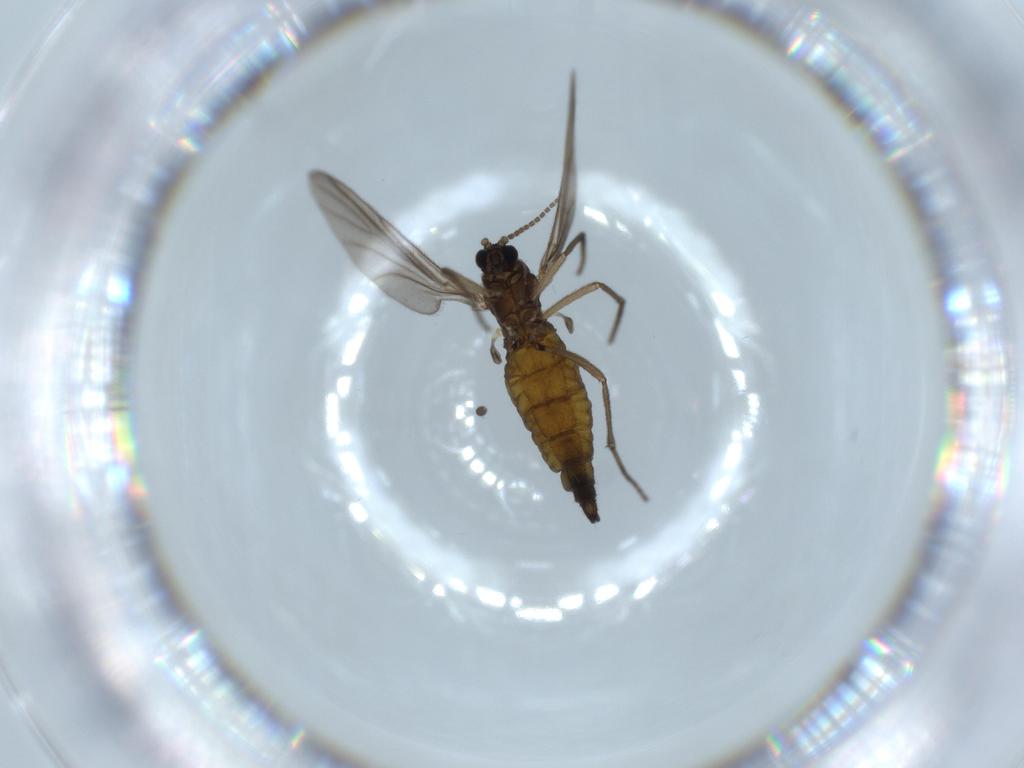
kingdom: Animalia
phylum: Arthropoda
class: Insecta
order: Diptera
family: Sciaridae
